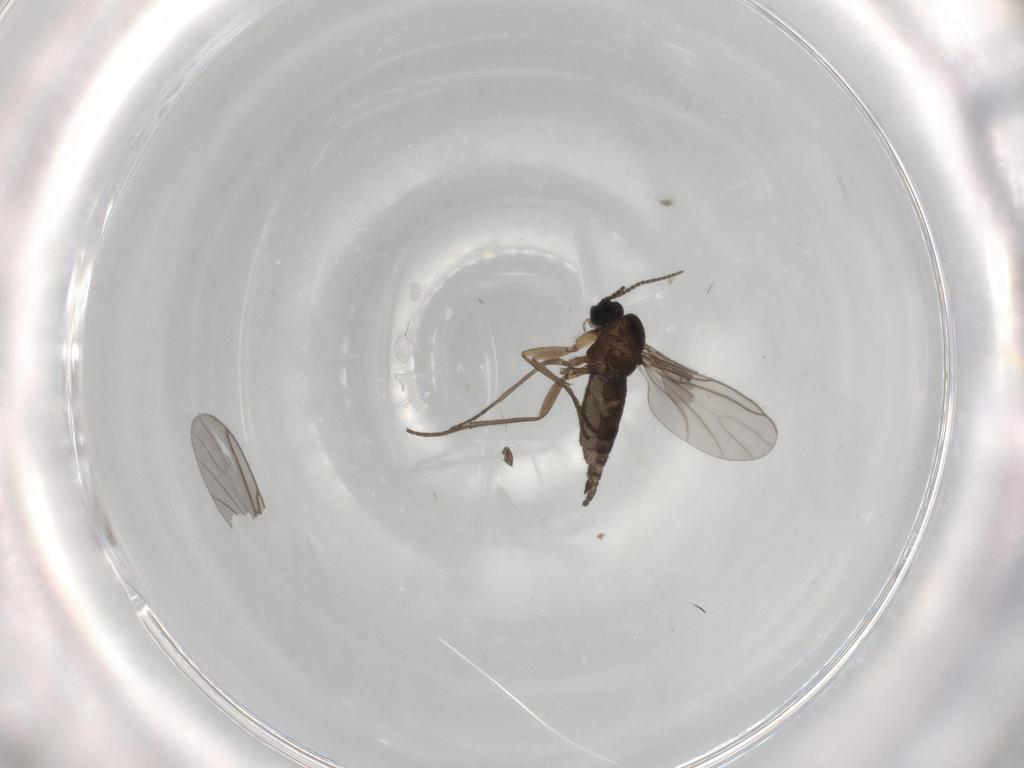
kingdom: Animalia
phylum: Arthropoda
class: Insecta
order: Diptera
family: Sciaridae
